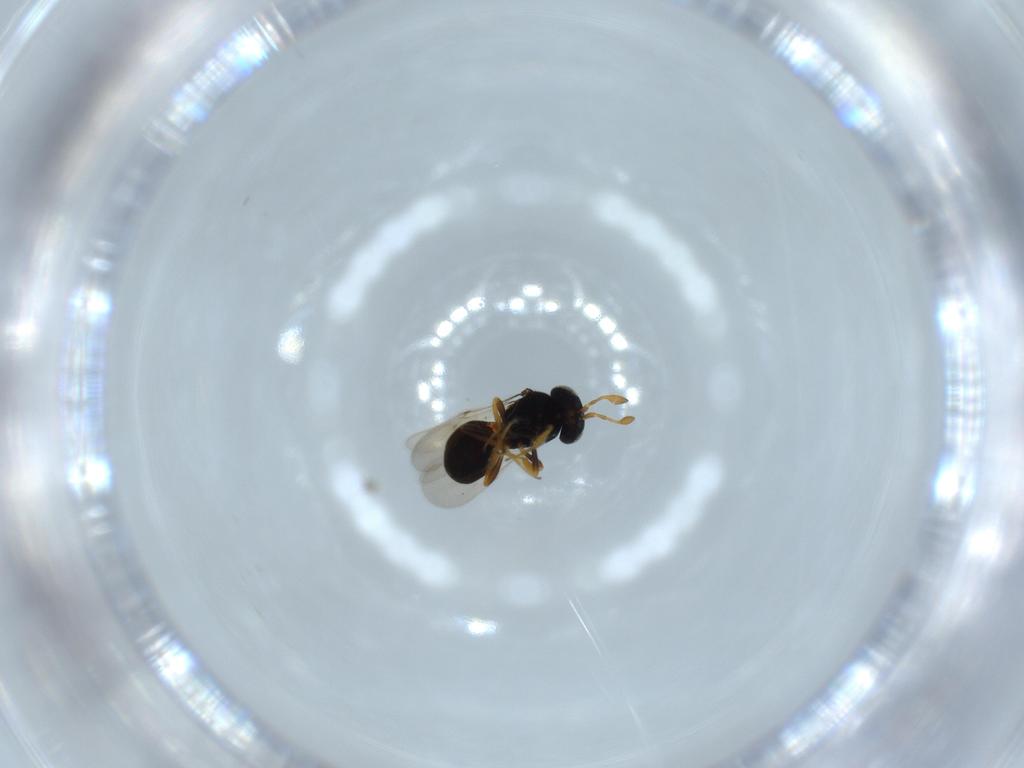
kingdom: Animalia
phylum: Arthropoda
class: Insecta
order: Hymenoptera
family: Scelionidae
